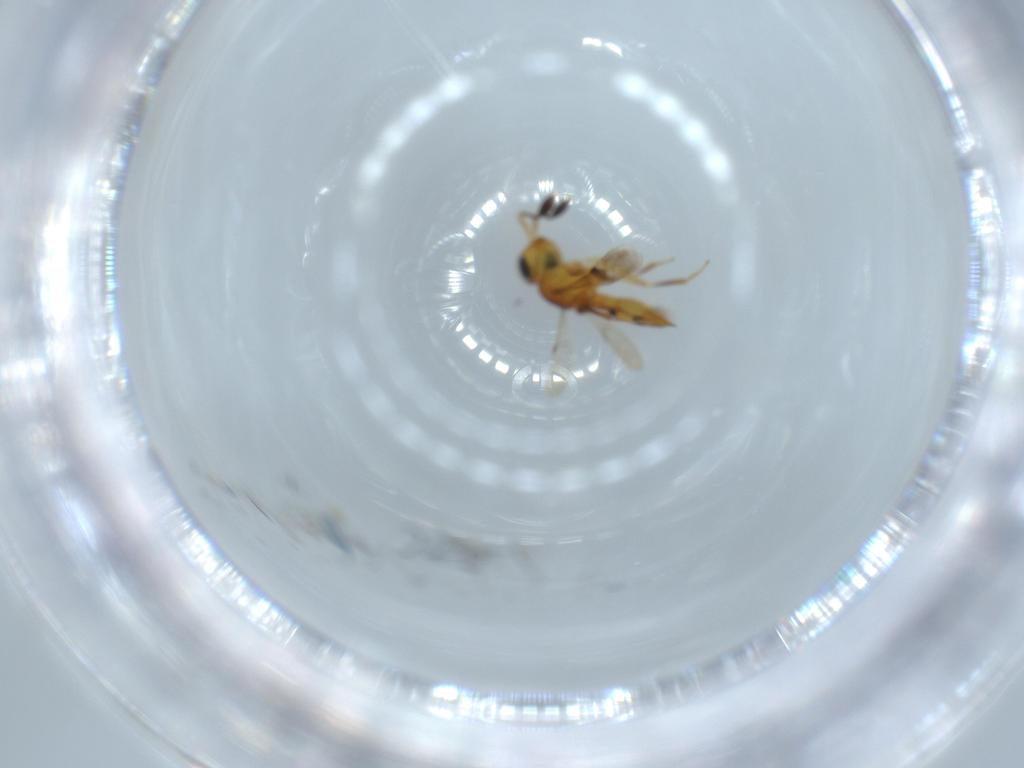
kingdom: Animalia
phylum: Arthropoda
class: Insecta
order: Hymenoptera
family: Scelionidae
